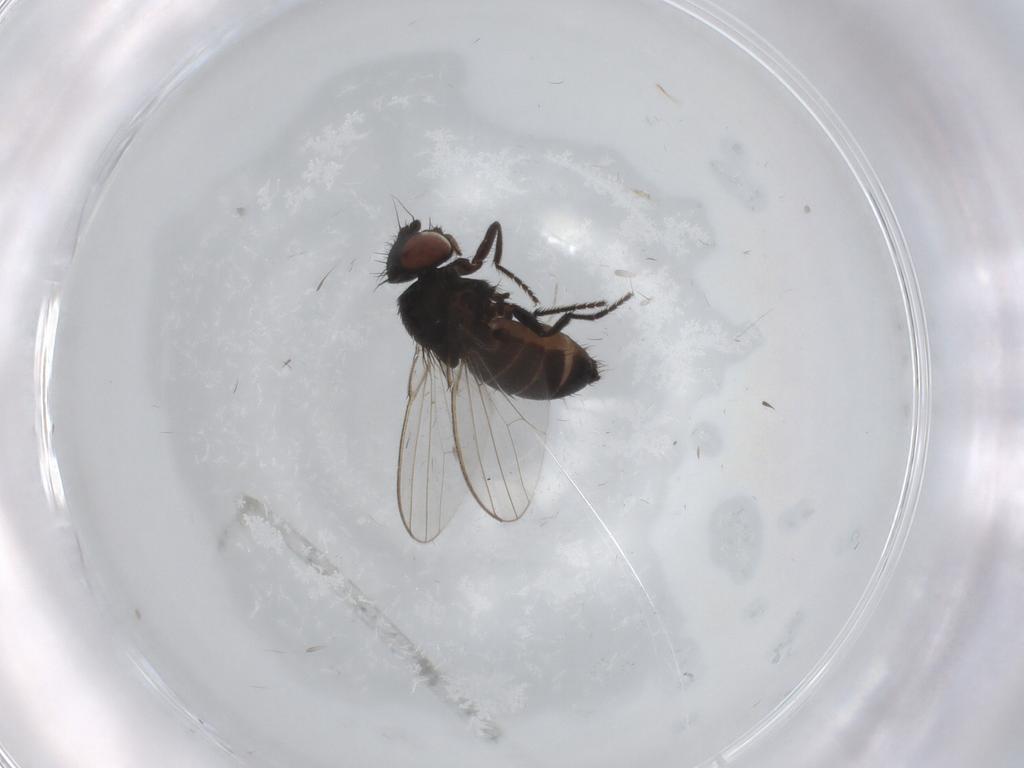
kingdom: Animalia
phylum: Arthropoda
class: Insecta
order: Diptera
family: Milichiidae
